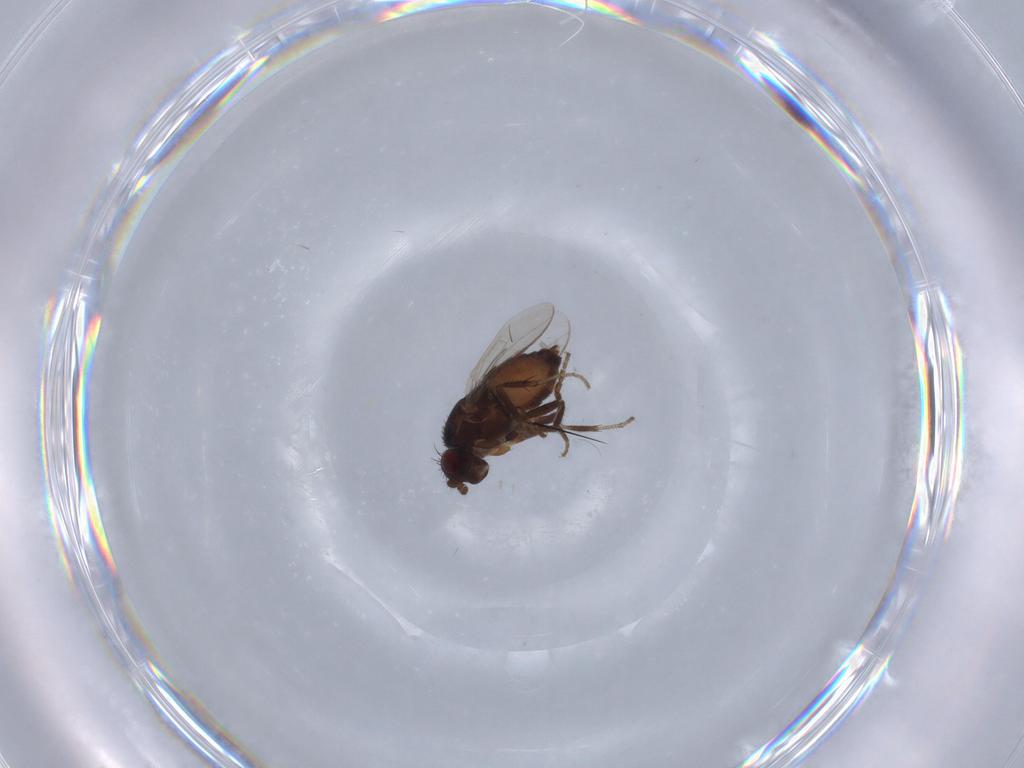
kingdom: Animalia
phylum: Arthropoda
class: Insecta
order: Diptera
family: Sphaeroceridae
